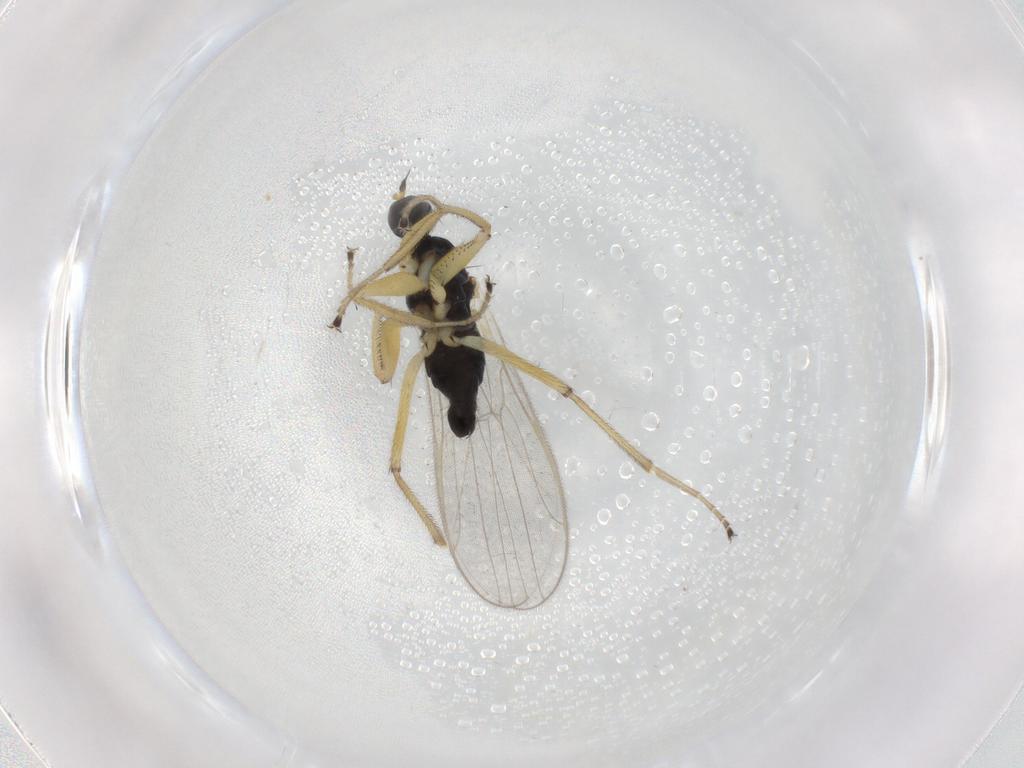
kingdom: Animalia
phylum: Arthropoda
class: Insecta
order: Diptera
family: Hybotidae
